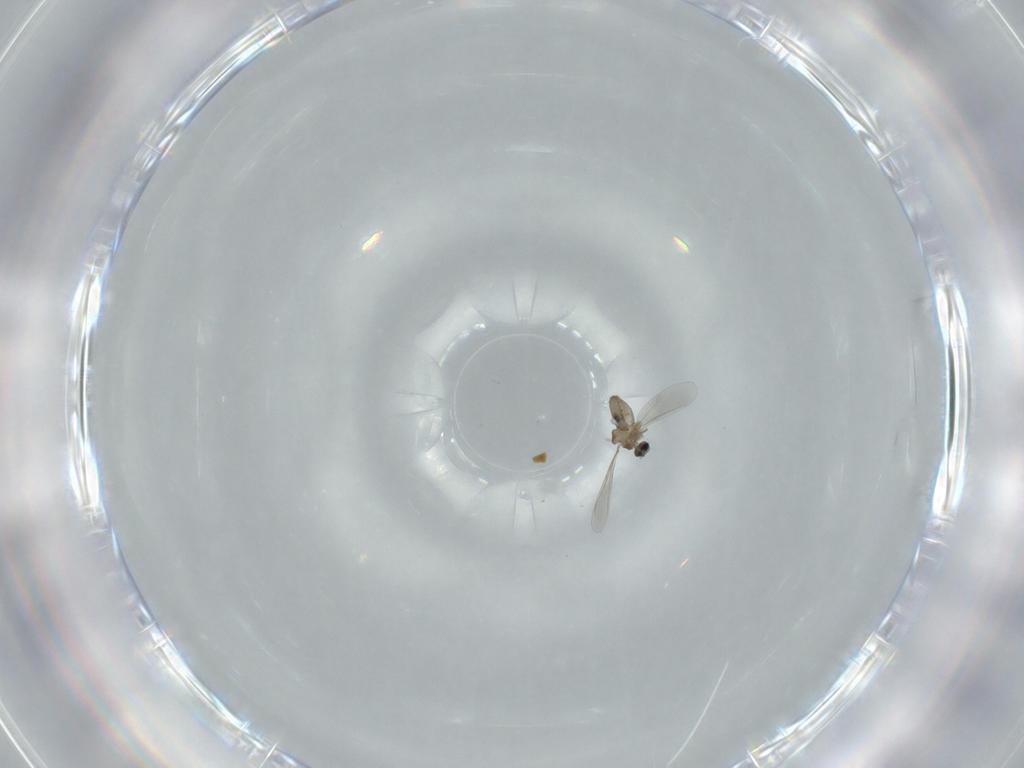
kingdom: Animalia
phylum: Arthropoda
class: Insecta
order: Diptera
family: Cecidomyiidae
